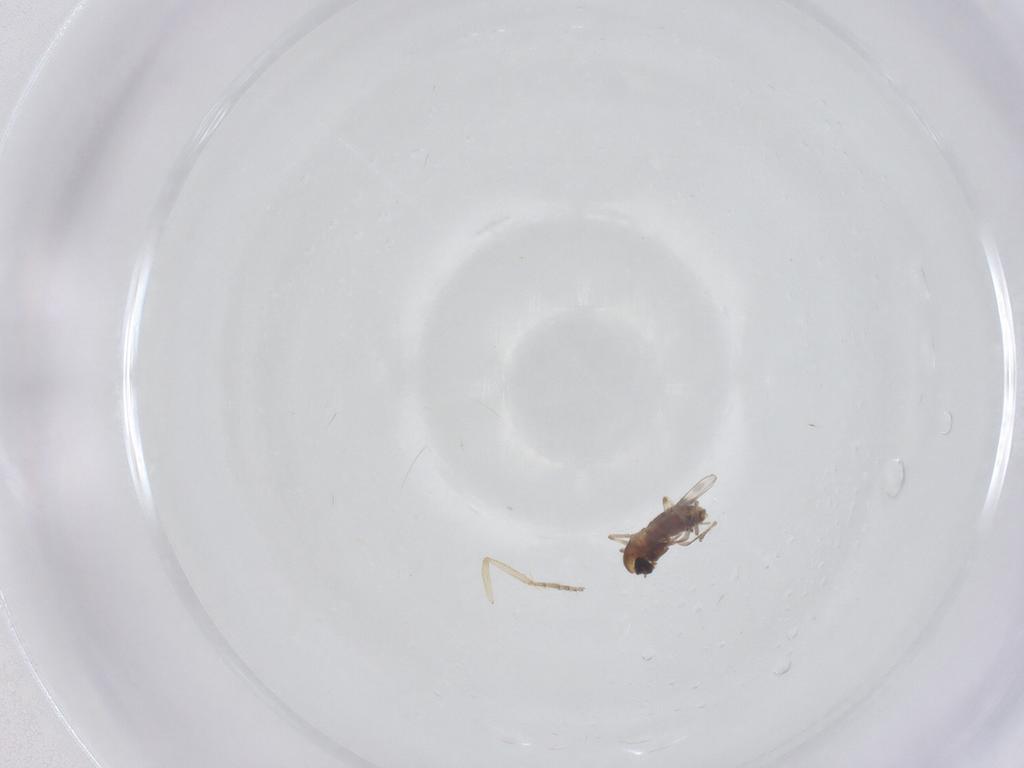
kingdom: Animalia
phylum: Arthropoda
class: Insecta
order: Diptera
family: Chironomidae
